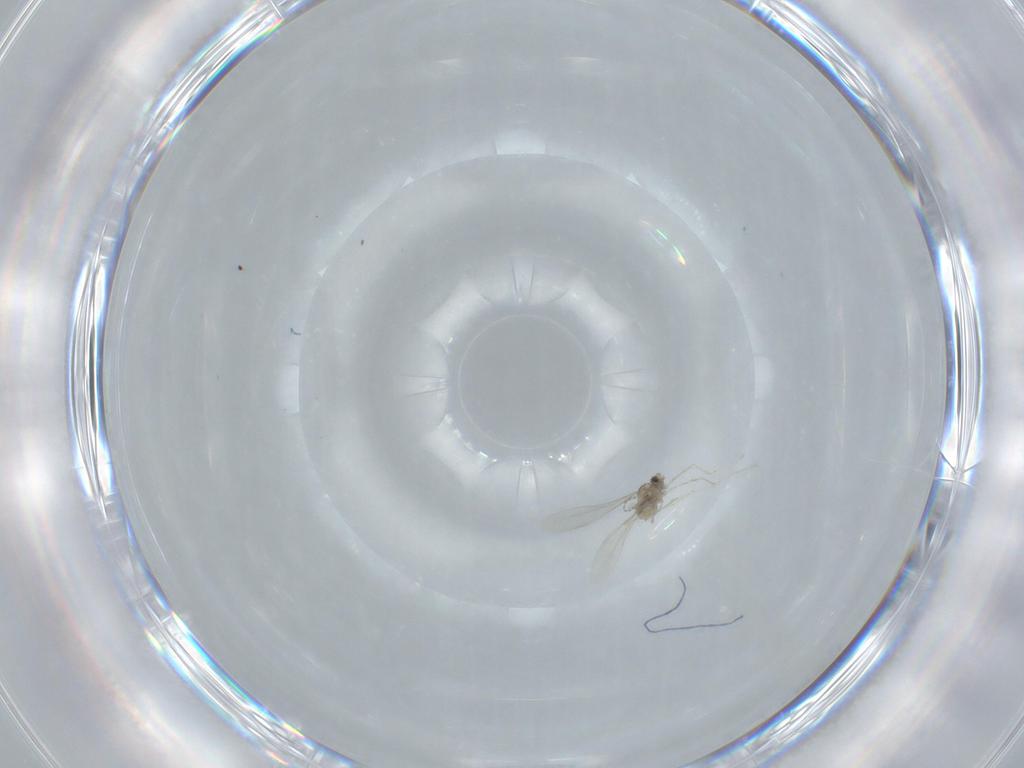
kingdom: Animalia
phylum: Arthropoda
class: Insecta
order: Diptera
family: Cecidomyiidae
